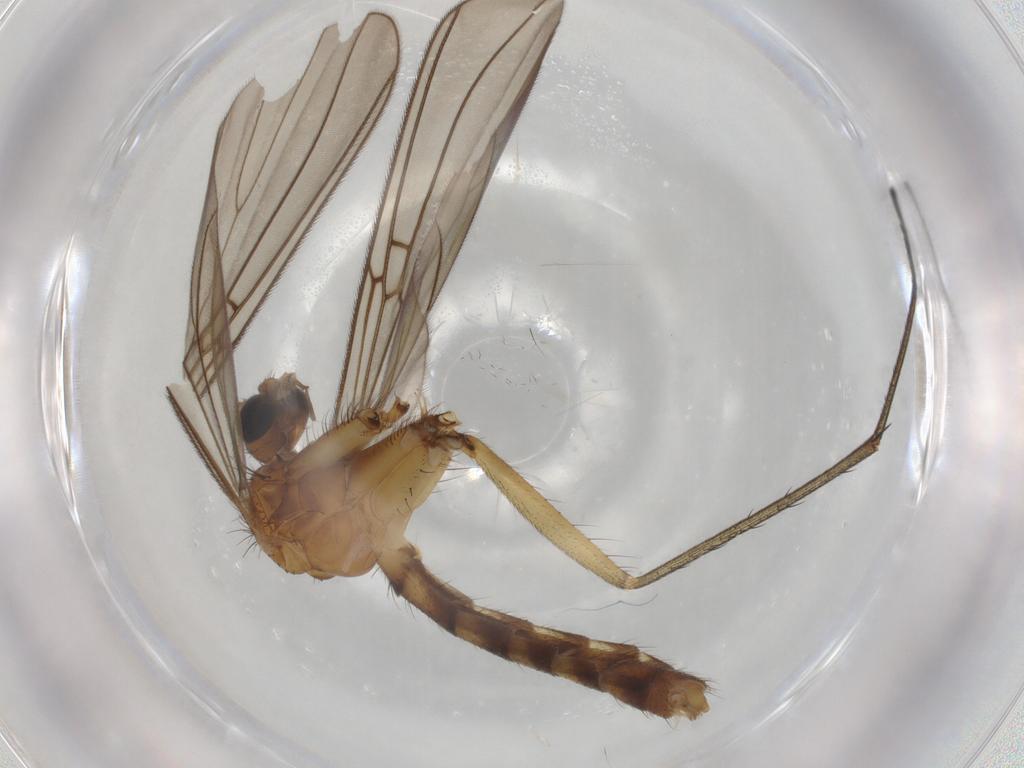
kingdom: Animalia
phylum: Arthropoda
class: Insecta
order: Diptera
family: Mycetophilidae
